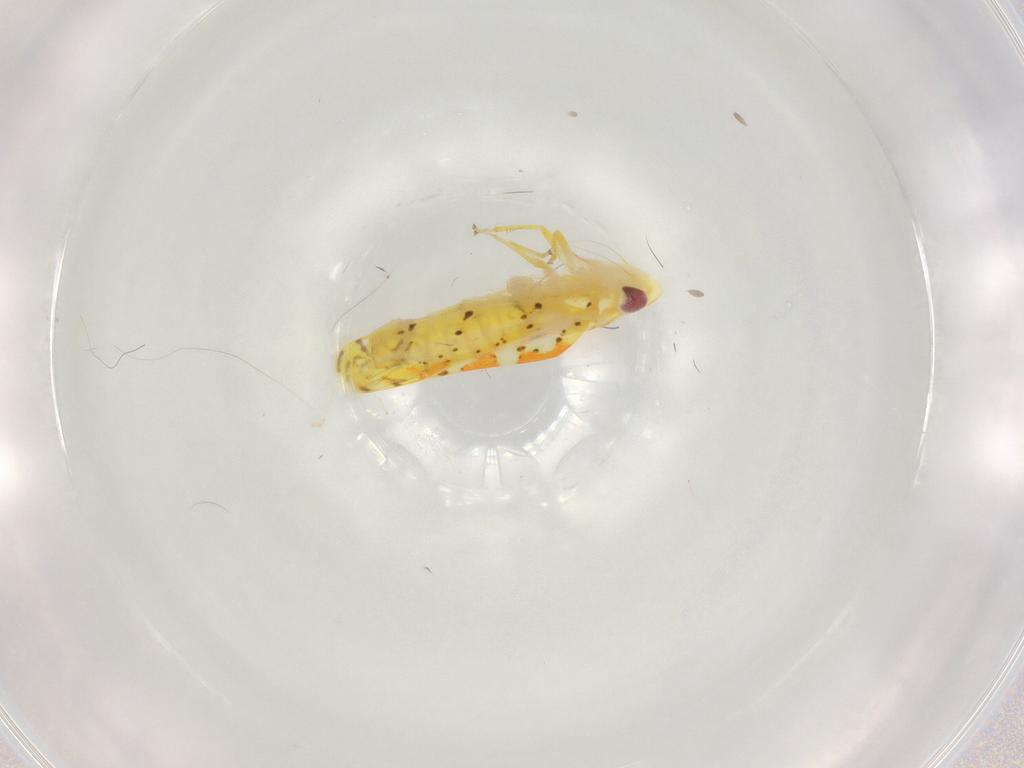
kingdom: Animalia
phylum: Arthropoda
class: Insecta
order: Hemiptera
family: Cicadellidae
